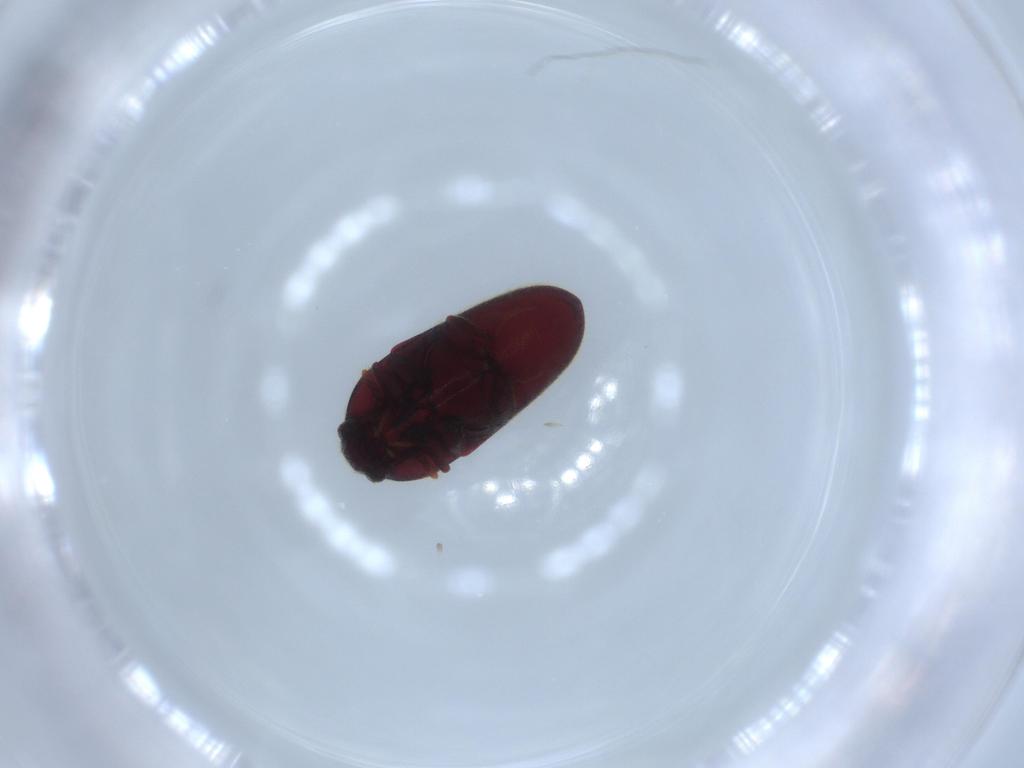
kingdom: Animalia
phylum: Arthropoda
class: Insecta
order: Coleoptera
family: Throscidae
